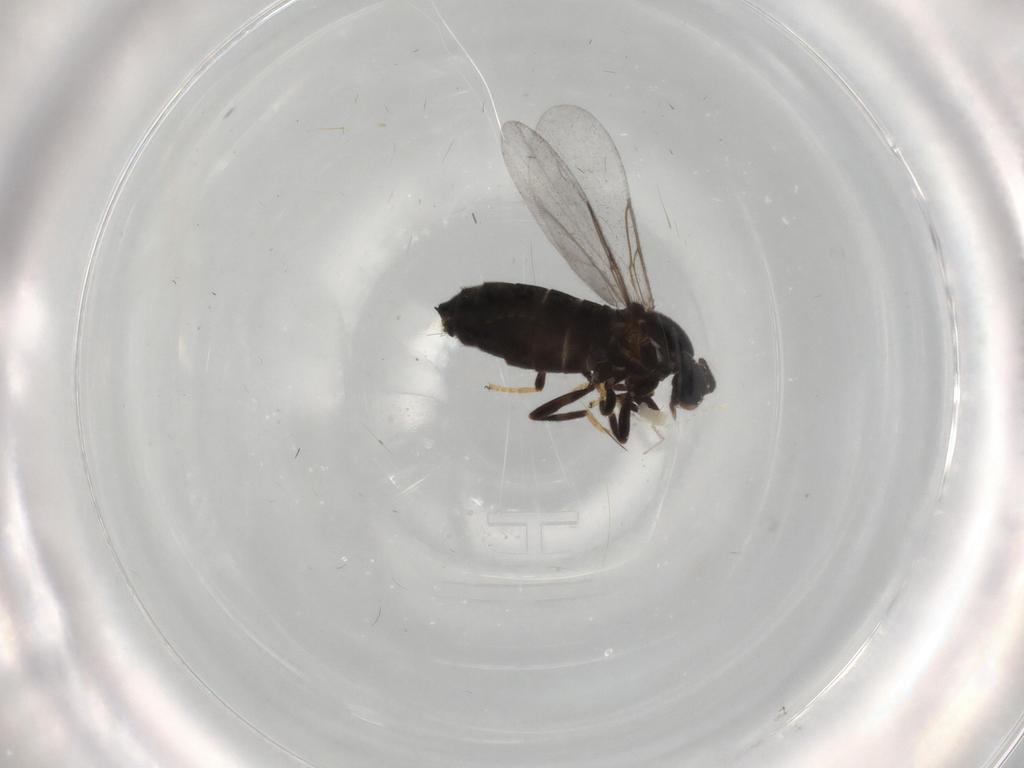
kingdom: Animalia
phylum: Arthropoda
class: Insecta
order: Diptera
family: Scatopsidae
